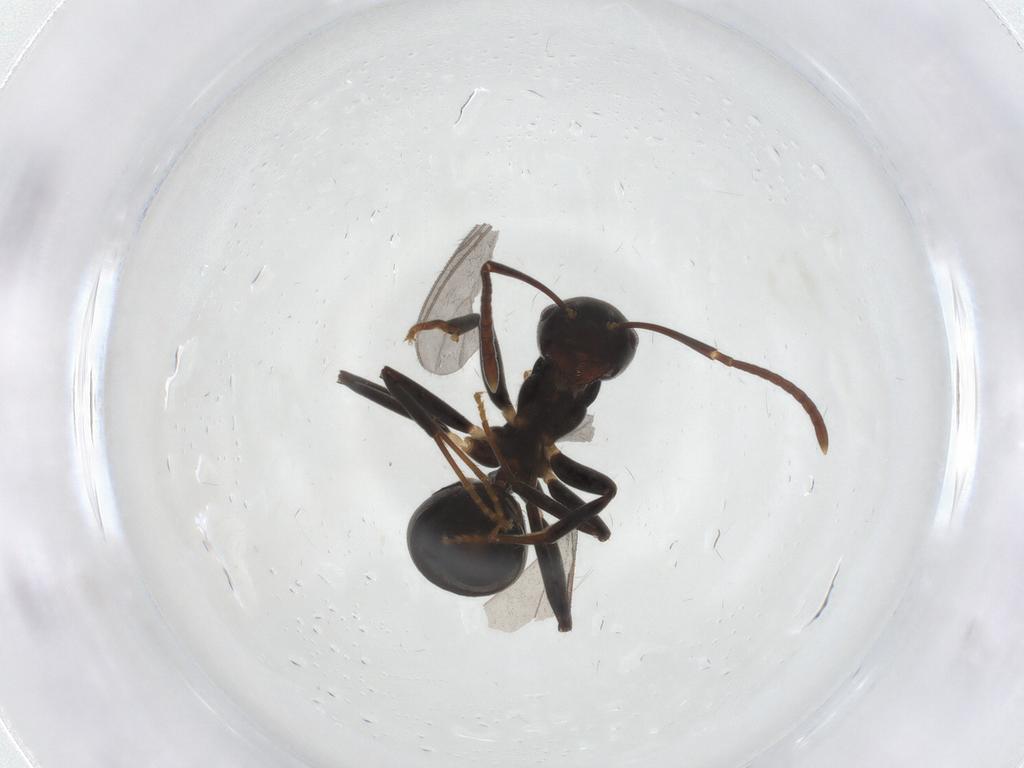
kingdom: Animalia
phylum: Arthropoda
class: Insecta
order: Hymenoptera
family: Formicidae
